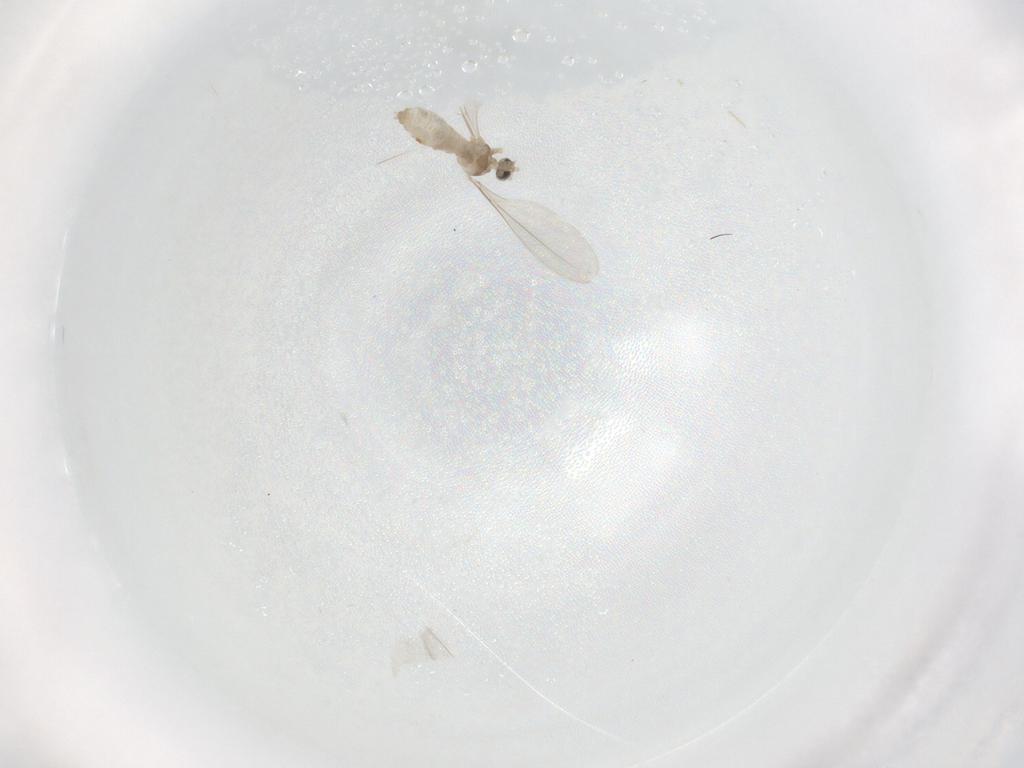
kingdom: Animalia
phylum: Arthropoda
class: Insecta
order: Diptera
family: Cecidomyiidae
